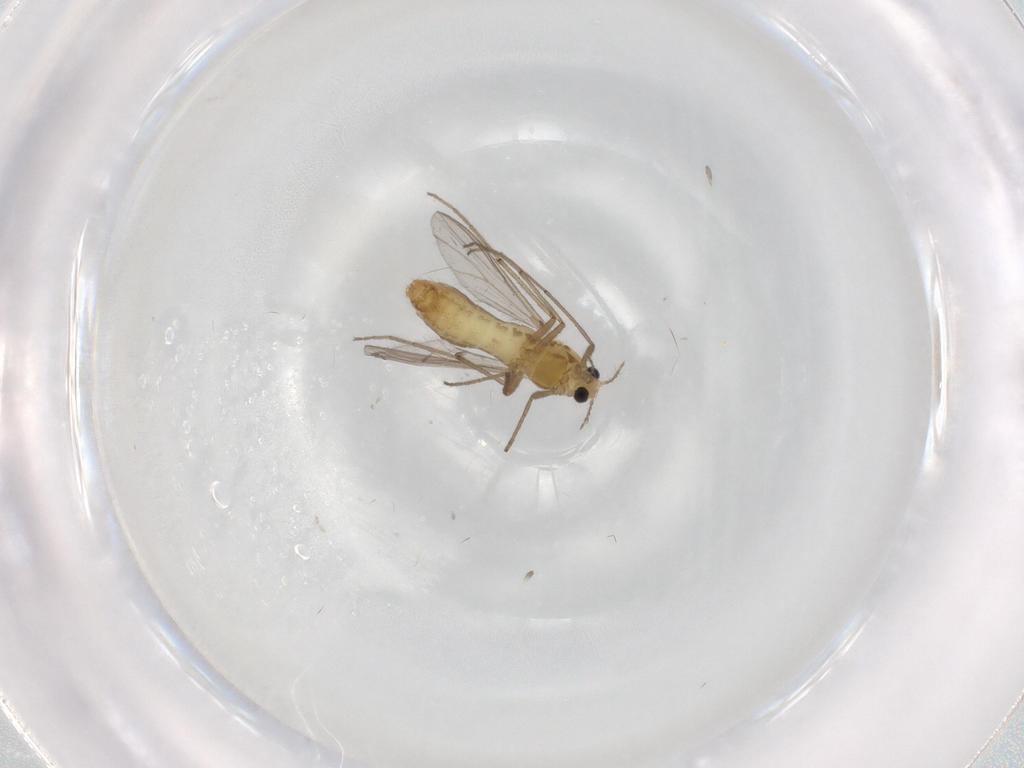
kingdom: Animalia
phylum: Arthropoda
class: Insecta
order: Diptera
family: Chironomidae
